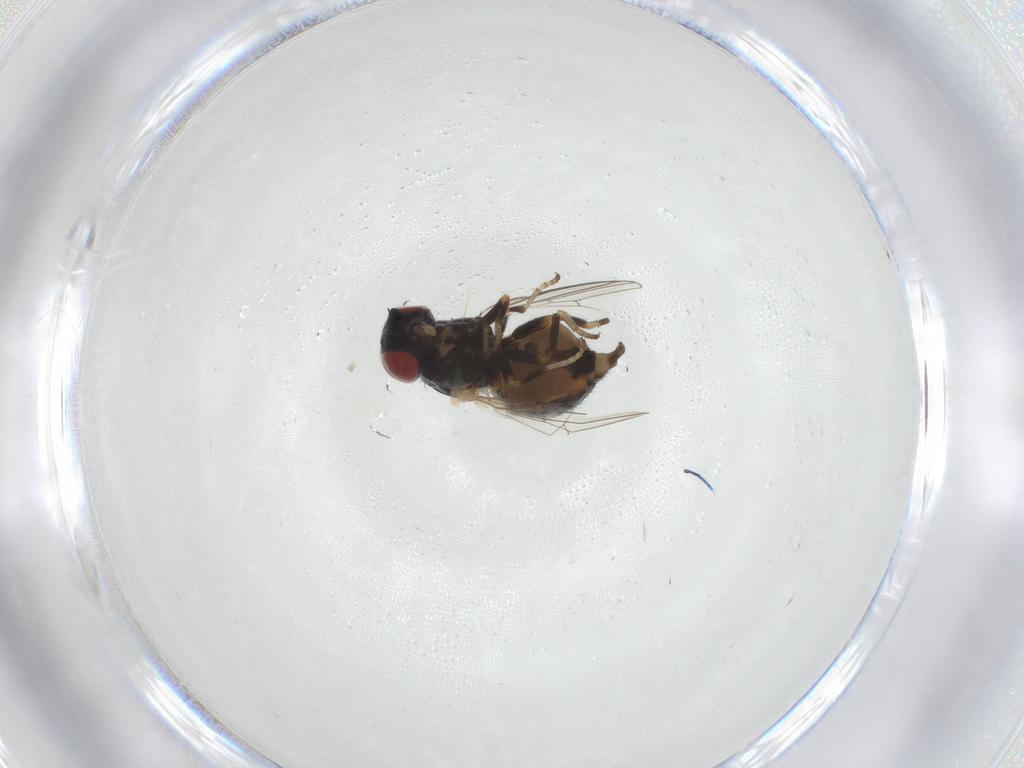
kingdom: Animalia
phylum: Arthropoda
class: Insecta
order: Diptera
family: Chamaemyiidae
